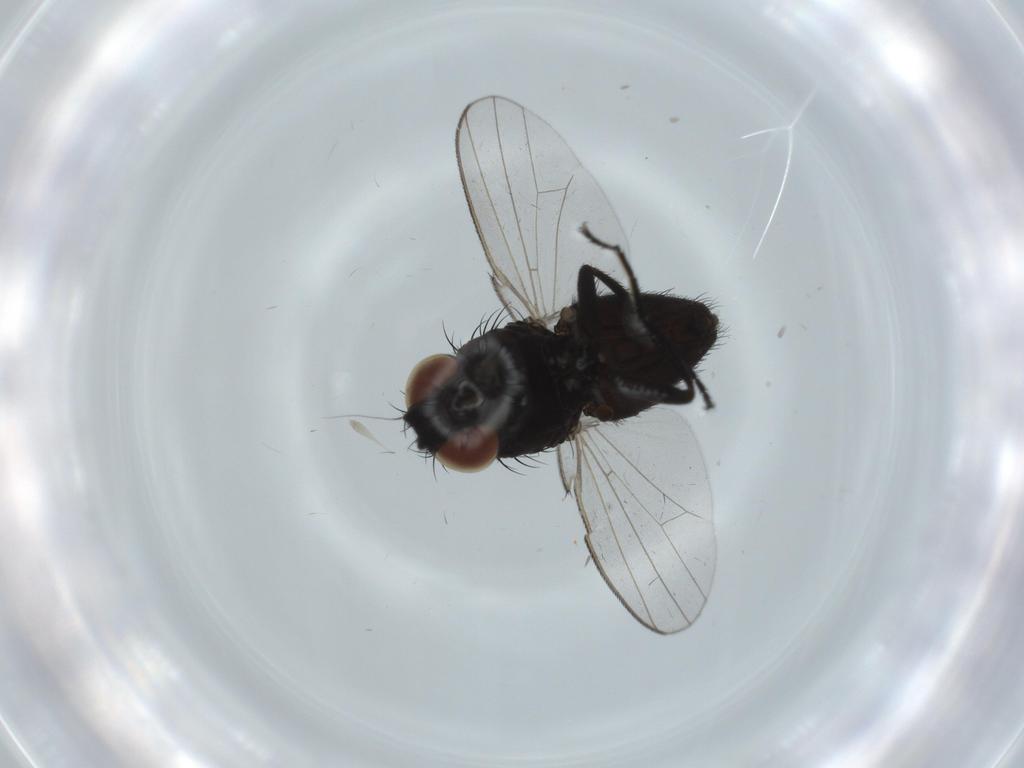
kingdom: Animalia
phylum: Arthropoda
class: Insecta
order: Diptera
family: Milichiidae
